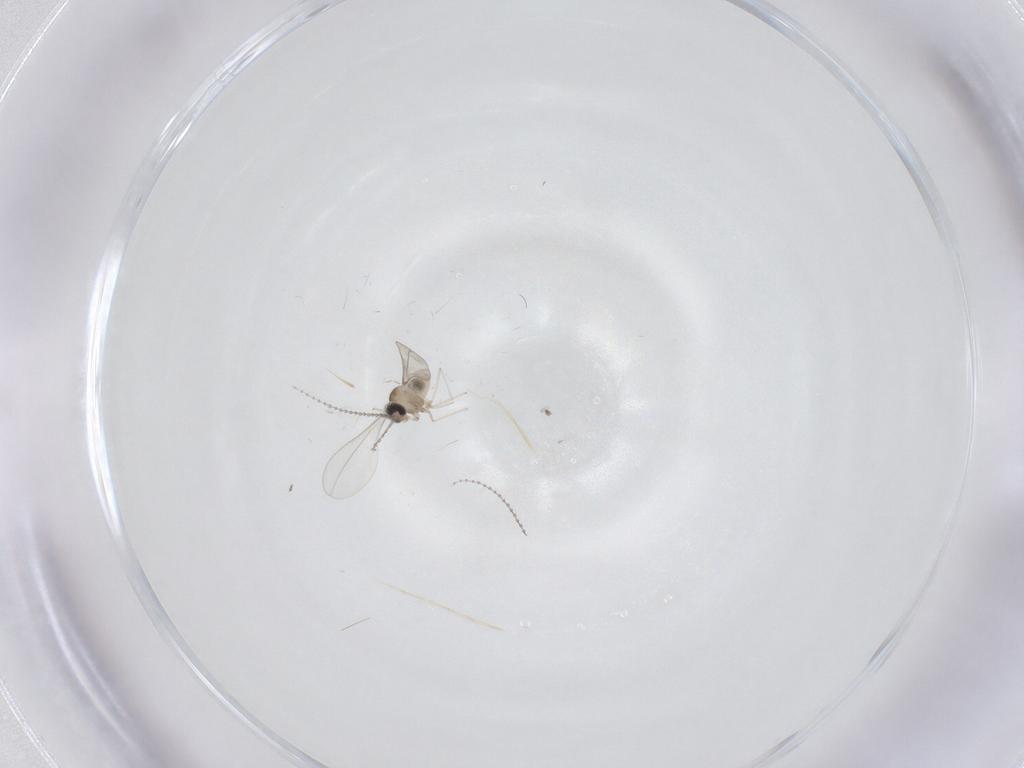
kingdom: Animalia
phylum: Arthropoda
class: Insecta
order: Diptera
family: Cecidomyiidae
